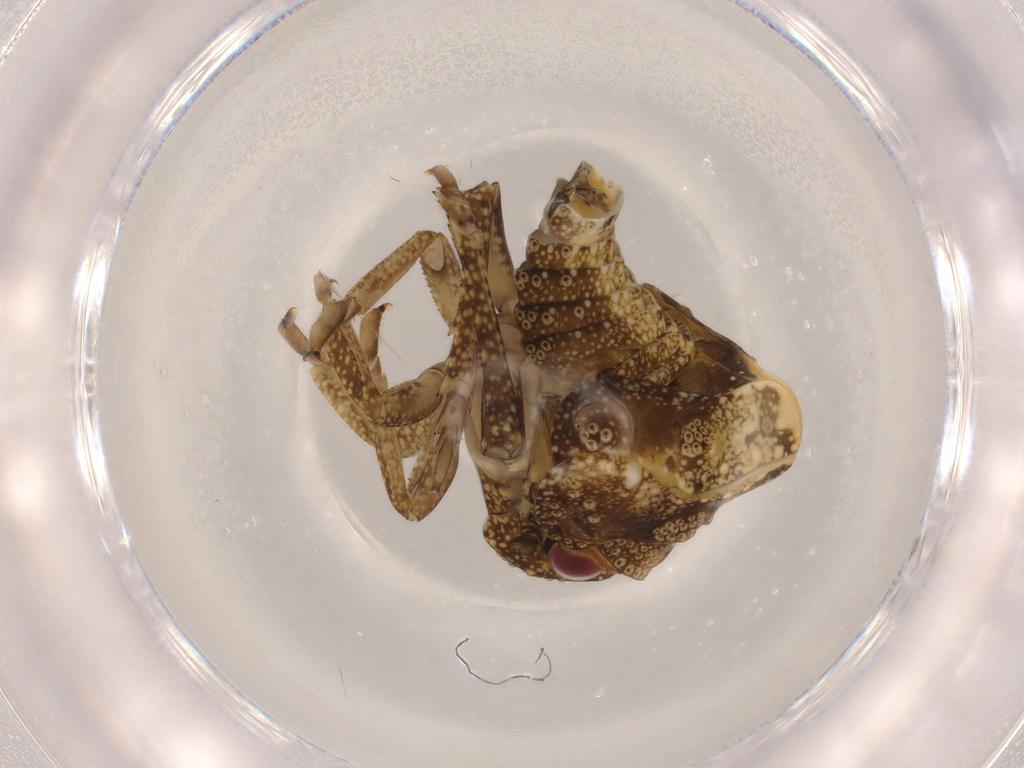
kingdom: Animalia
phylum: Arthropoda
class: Insecta
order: Hemiptera
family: Acanaloniidae
